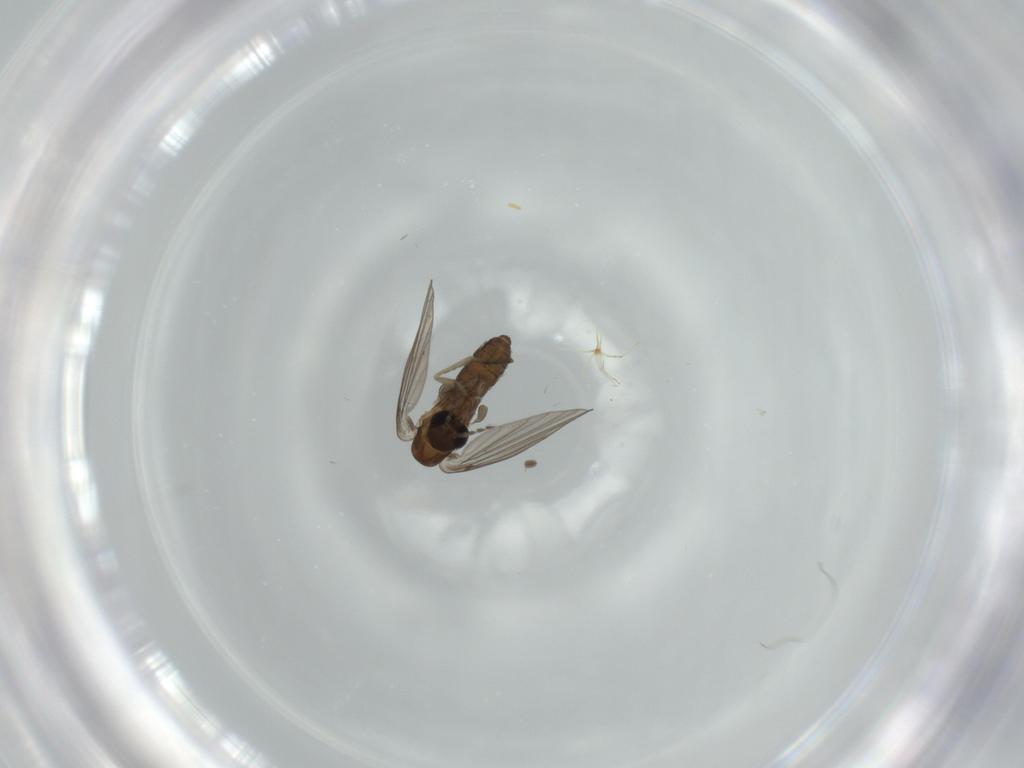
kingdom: Animalia
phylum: Arthropoda
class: Insecta
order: Diptera
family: Psychodidae
